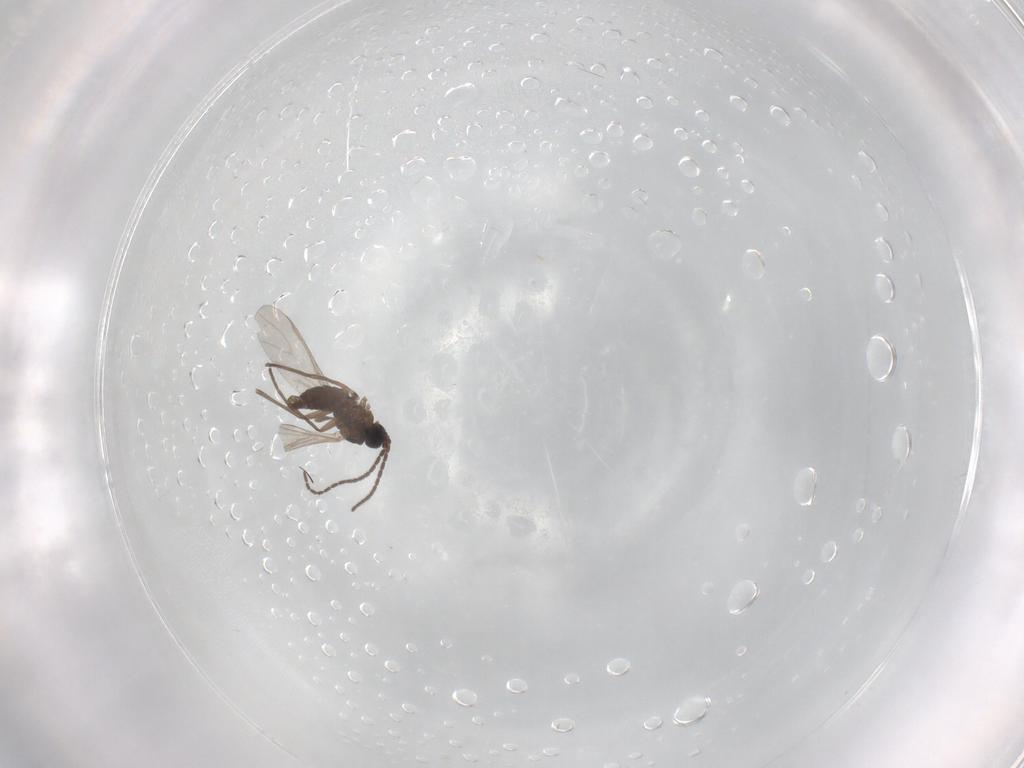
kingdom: Animalia
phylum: Arthropoda
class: Insecta
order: Diptera
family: Sciaridae
